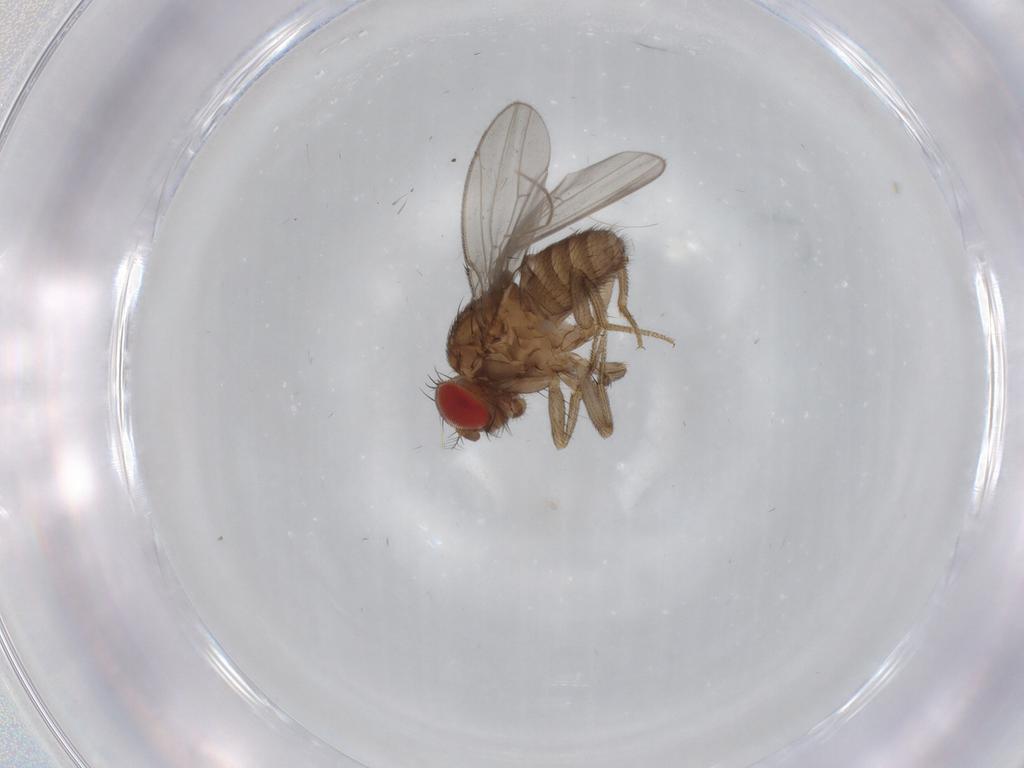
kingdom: Animalia
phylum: Arthropoda
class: Insecta
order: Diptera
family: Drosophilidae
